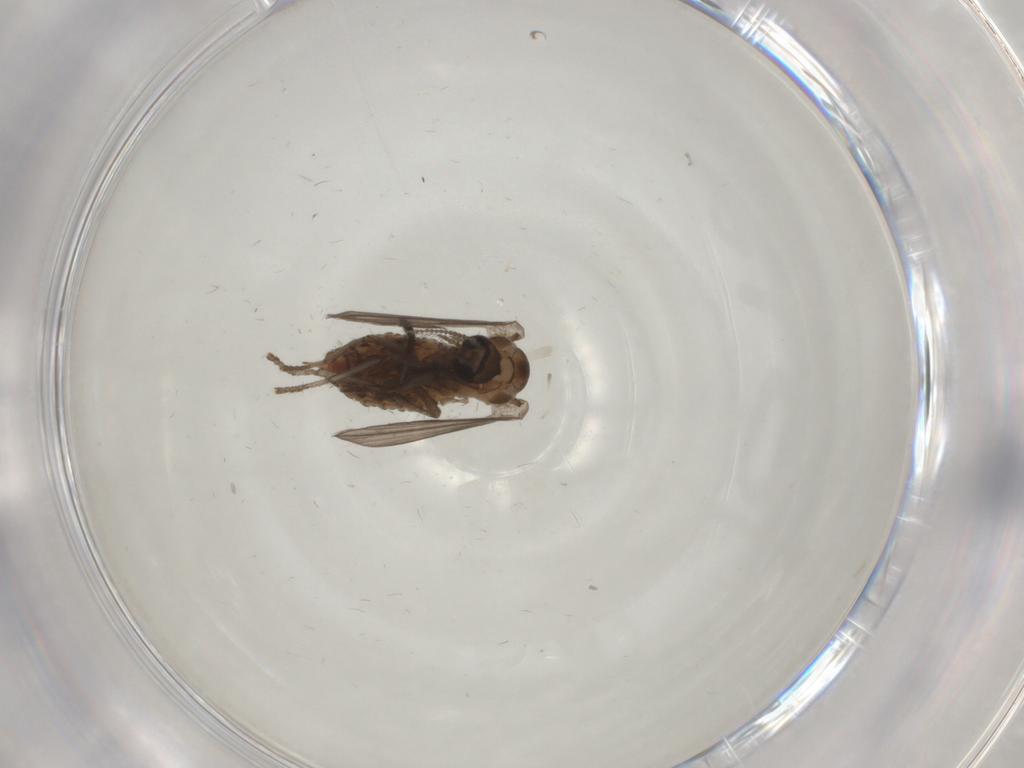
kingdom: Animalia
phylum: Arthropoda
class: Insecta
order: Diptera
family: Psychodidae
